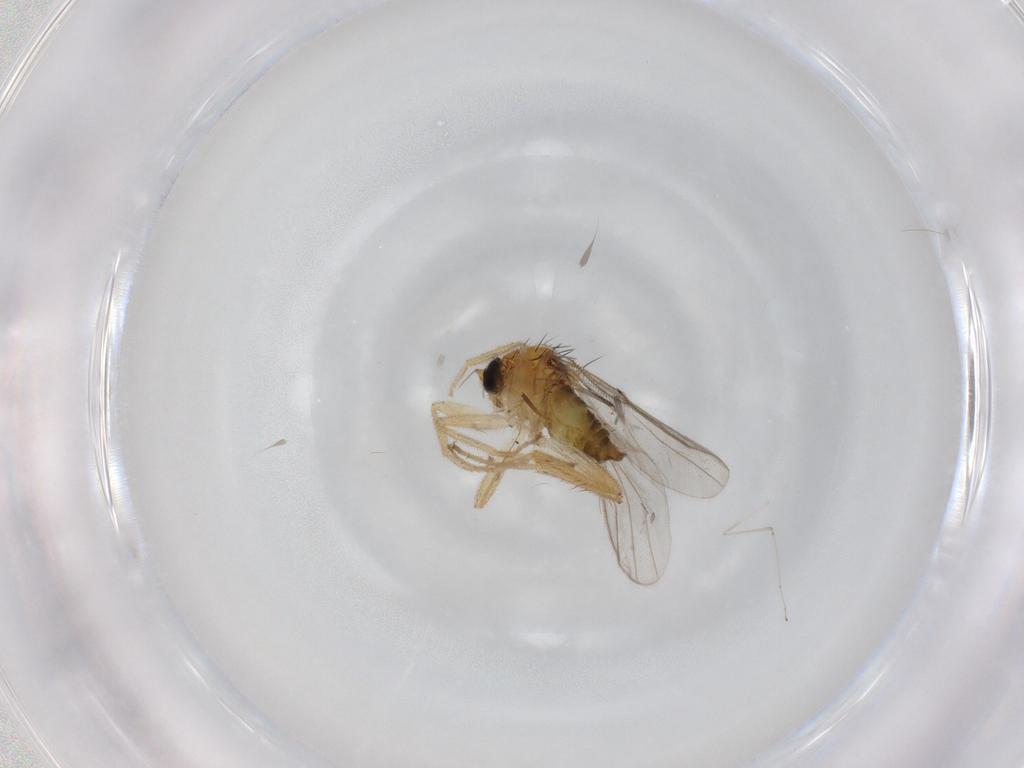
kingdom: Animalia
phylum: Arthropoda
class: Insecta
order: Diptera
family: Hybotidae
